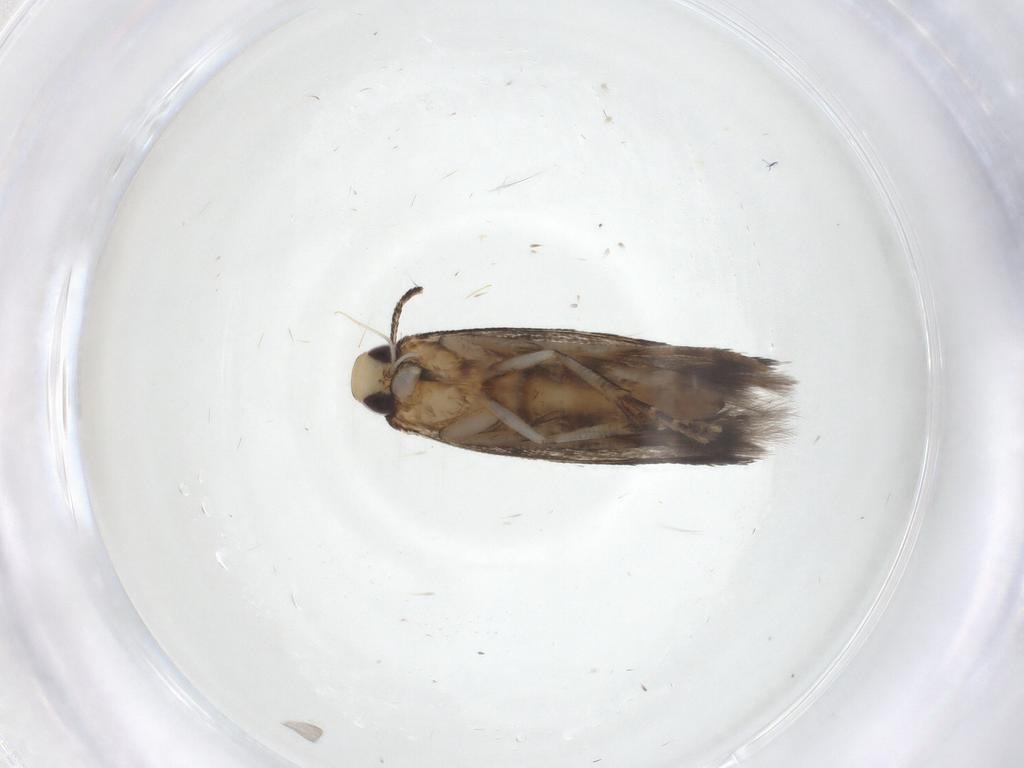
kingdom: Animalia
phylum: Arthropoda
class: Insecta
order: Lepidoptera
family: Cosmopterigidae
